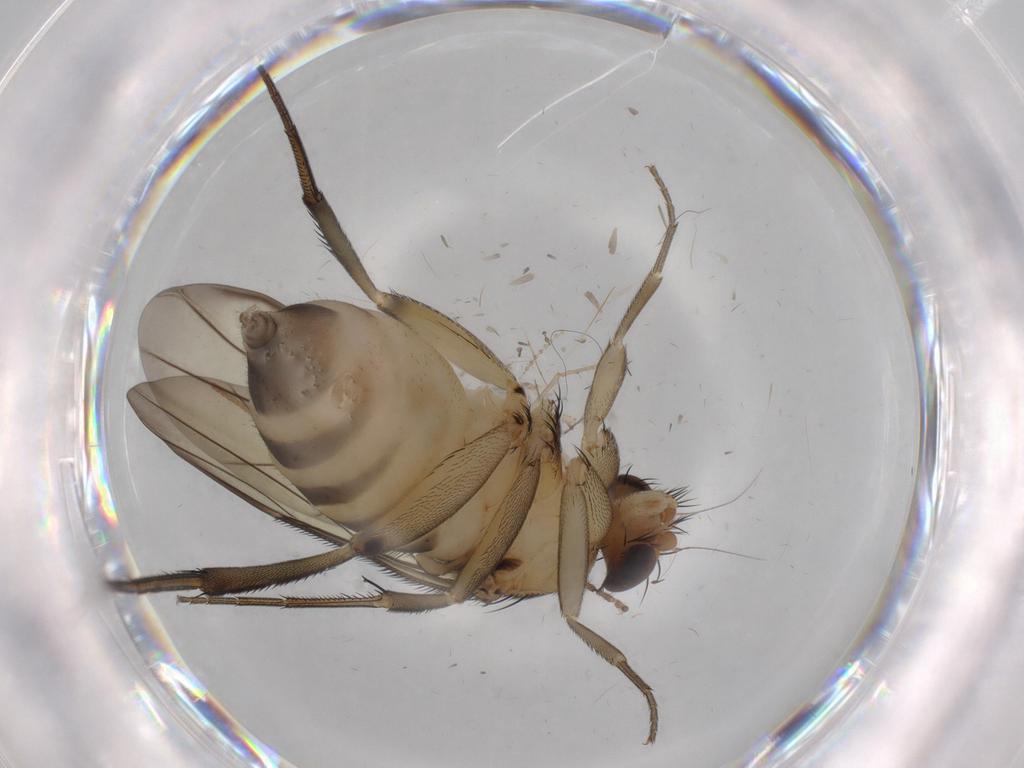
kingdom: Animalia
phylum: Arthropoda
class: Insecta
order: Diptera
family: Phoridae
